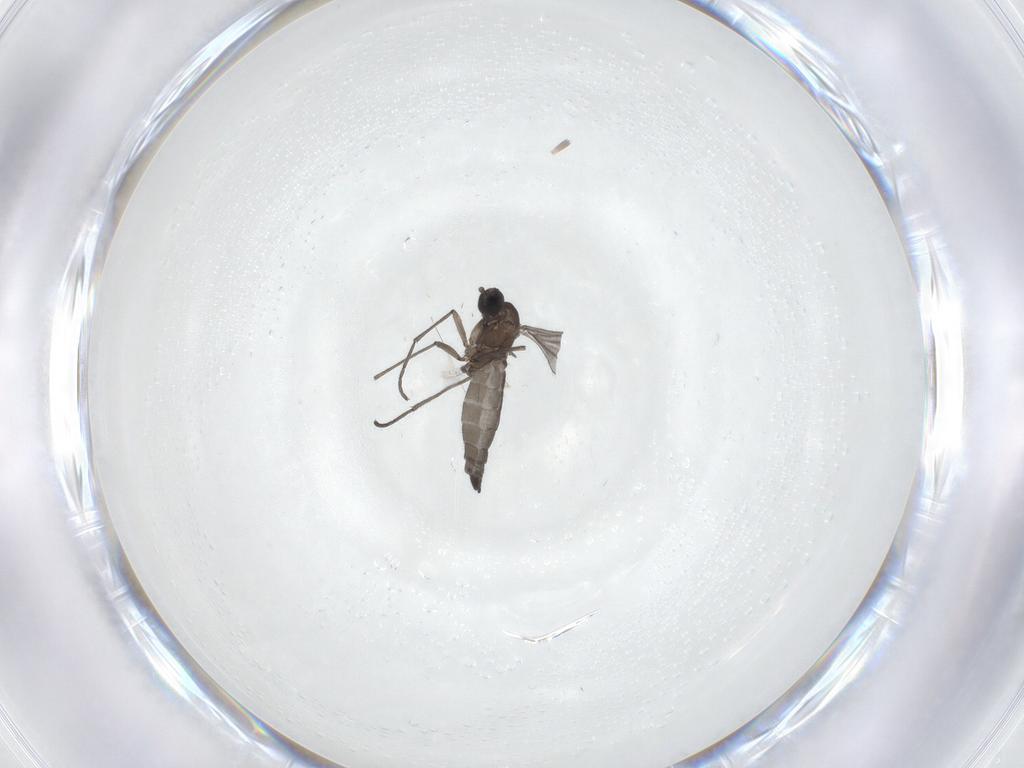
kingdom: Animalia
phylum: Arthropoda
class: Insecta
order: Diptera
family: Sciaridae
